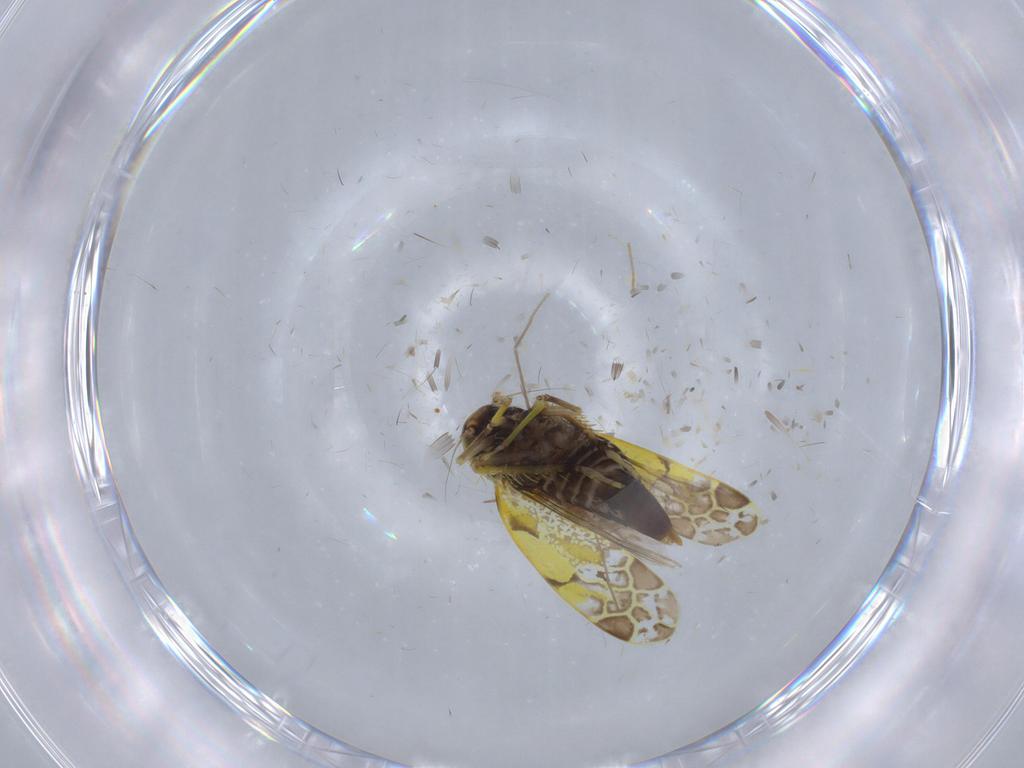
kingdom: Animalia
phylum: Arthropoda
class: Insecta
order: Hemiptera
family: Cicadellidae
